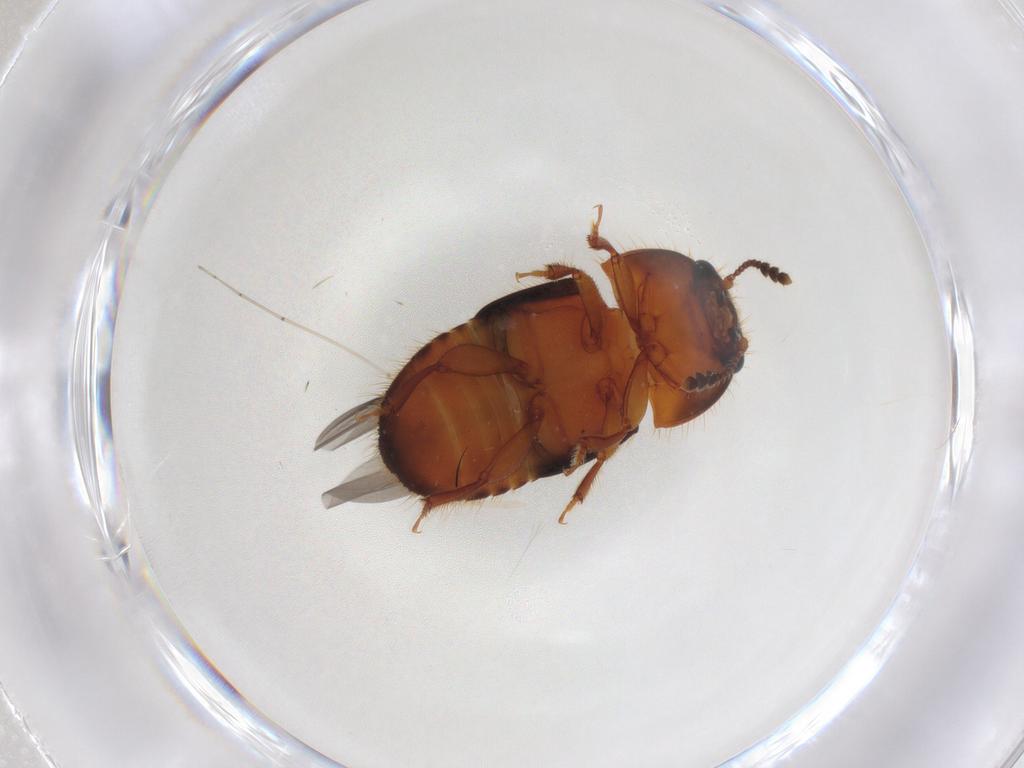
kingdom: Animalia
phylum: Arthropoda
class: Insecta
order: Coleoptera
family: Nitidulidae
